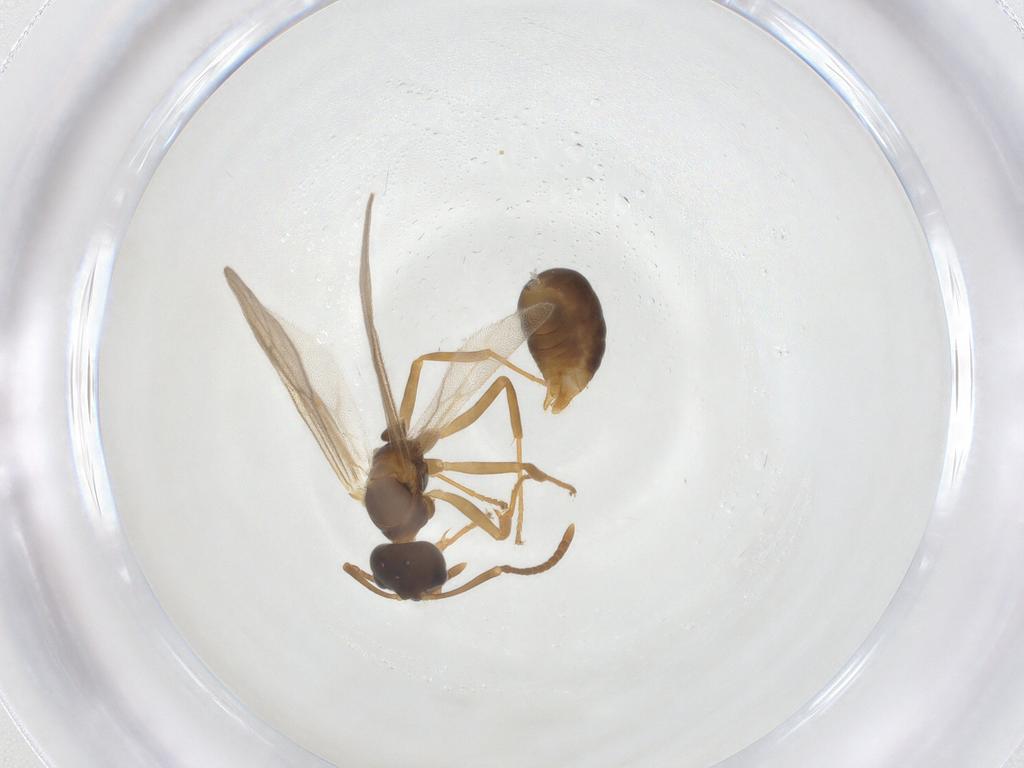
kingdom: Animalia
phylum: Arthropoda
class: Insecta
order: Hymenoptera
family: Formicidae
